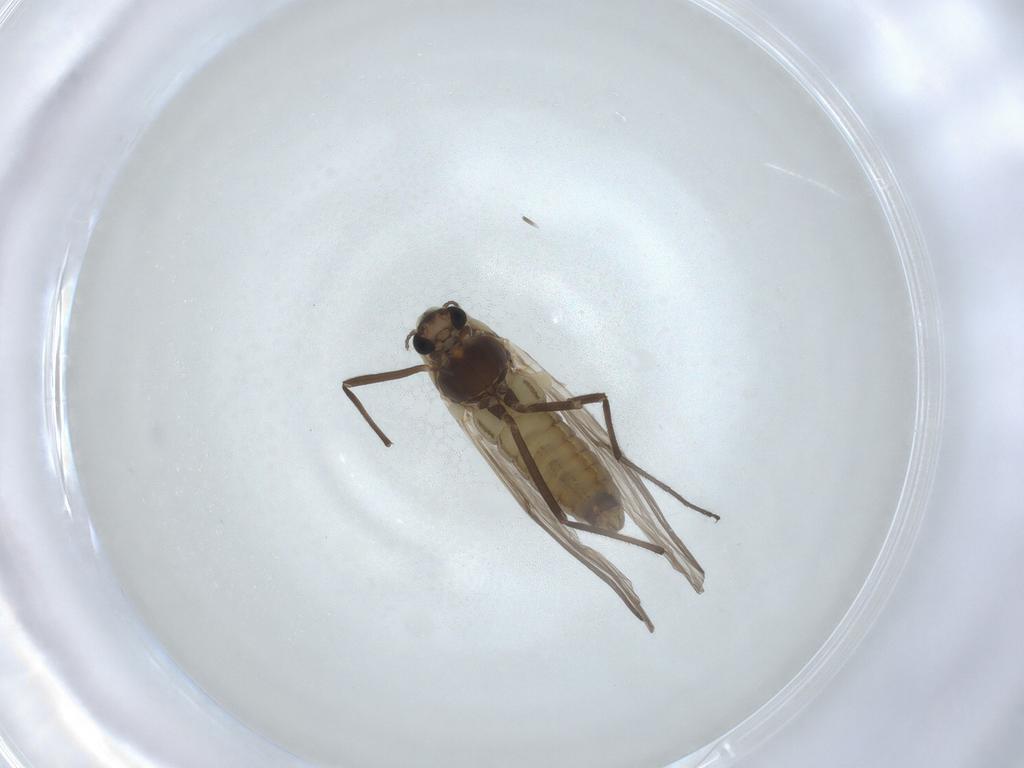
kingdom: Animalia
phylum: Arthropoda
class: Insecta
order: Diptera
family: Chironomidae
